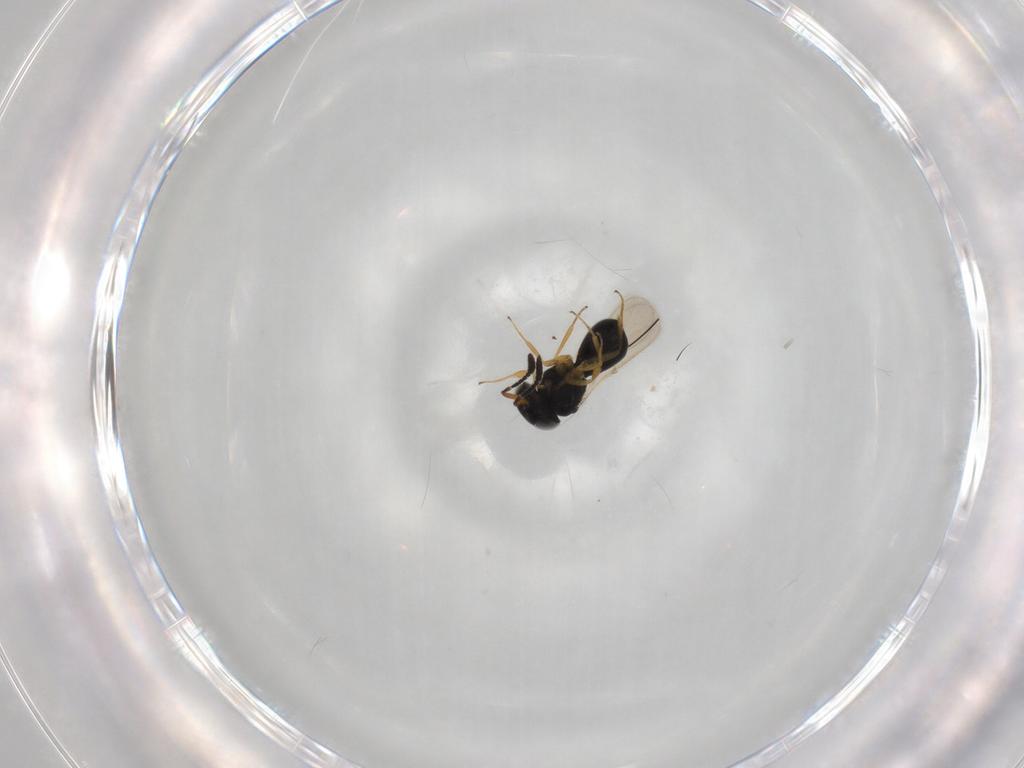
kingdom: Animalia
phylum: Arthropoda
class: Insecta
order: Hymenoptera
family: Scelionidae
